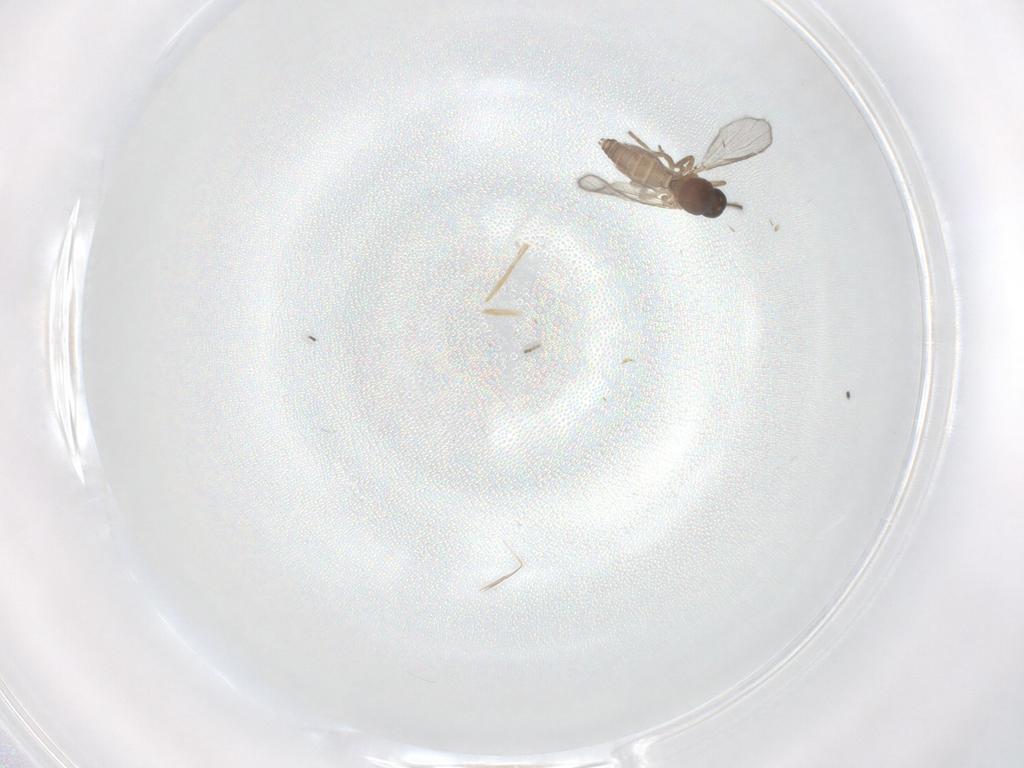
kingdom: Animalia
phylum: Arthropoda
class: Insecta
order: Diptera
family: Ceratopogonidae
